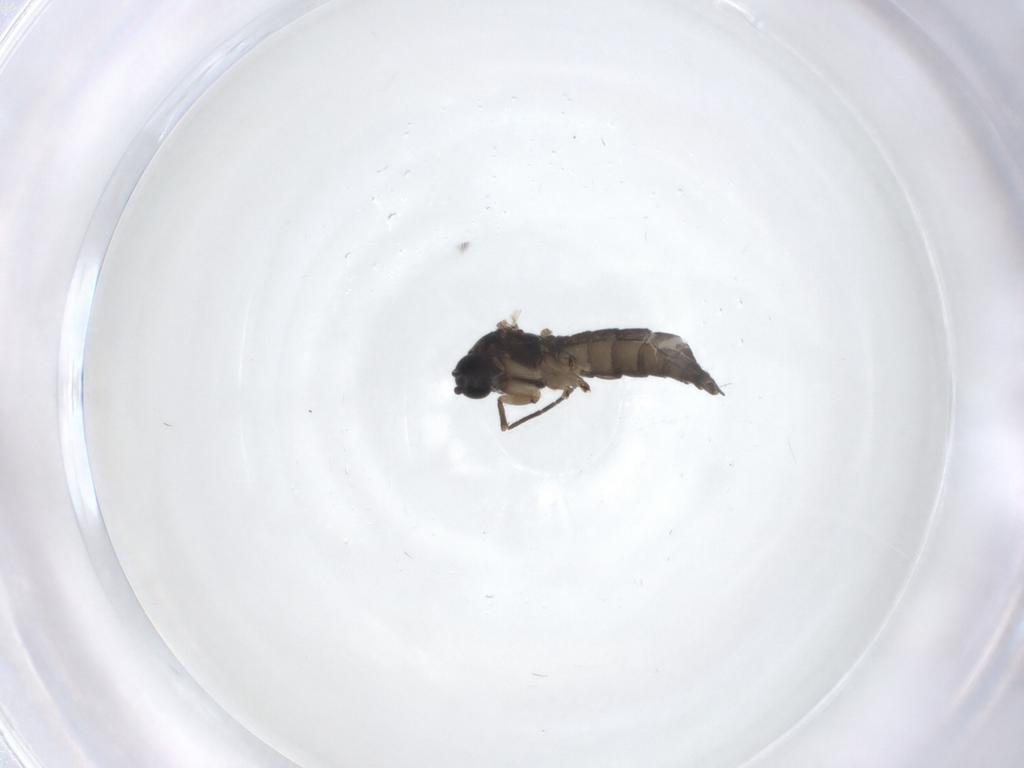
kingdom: Animalia
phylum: Arthropoda
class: Insecta
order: Diptera
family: Sciaridae
